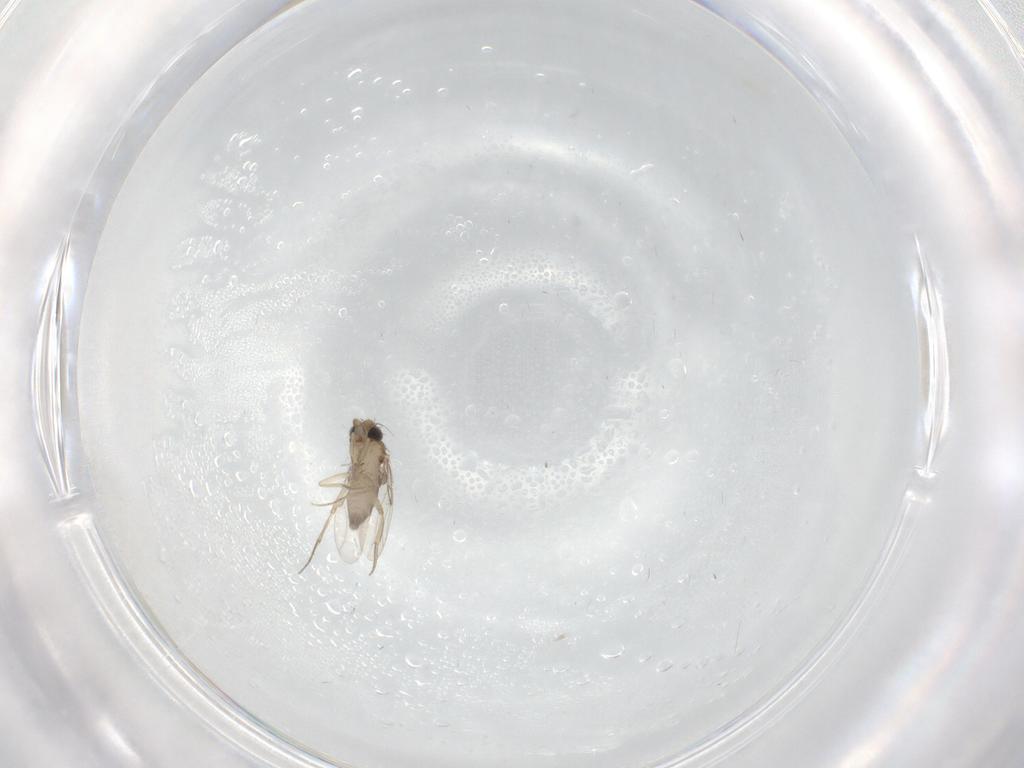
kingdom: Animalia
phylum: Arthropoda
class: Insecta
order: Diptera
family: Phoridae
